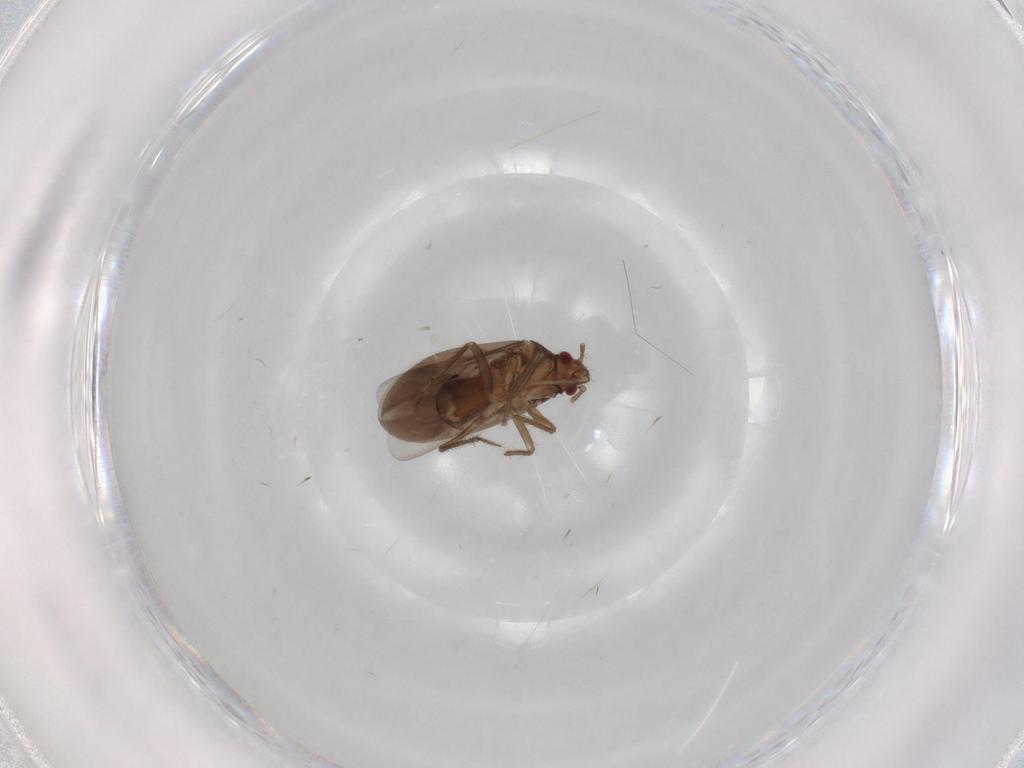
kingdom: Animalia
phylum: Arthropoda
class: Insecta
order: Hemiptera
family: Ceratocombidae
